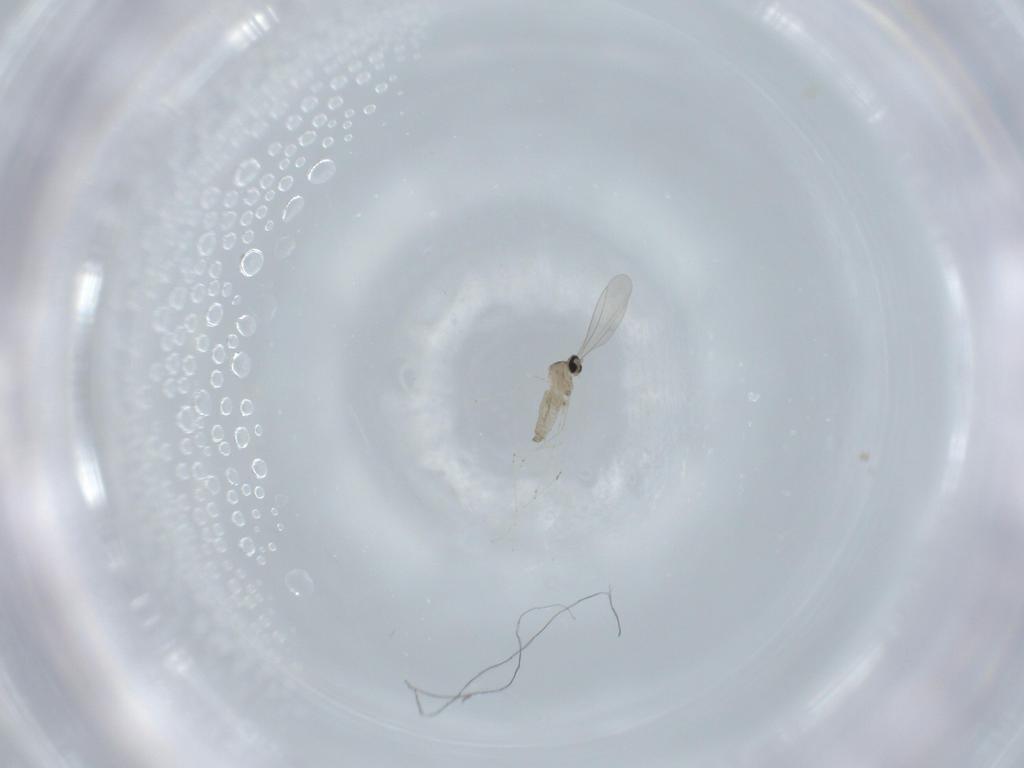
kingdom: Animalia
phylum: Arthropoda
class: Insecta
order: Diptera
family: Cecidomyiidae
